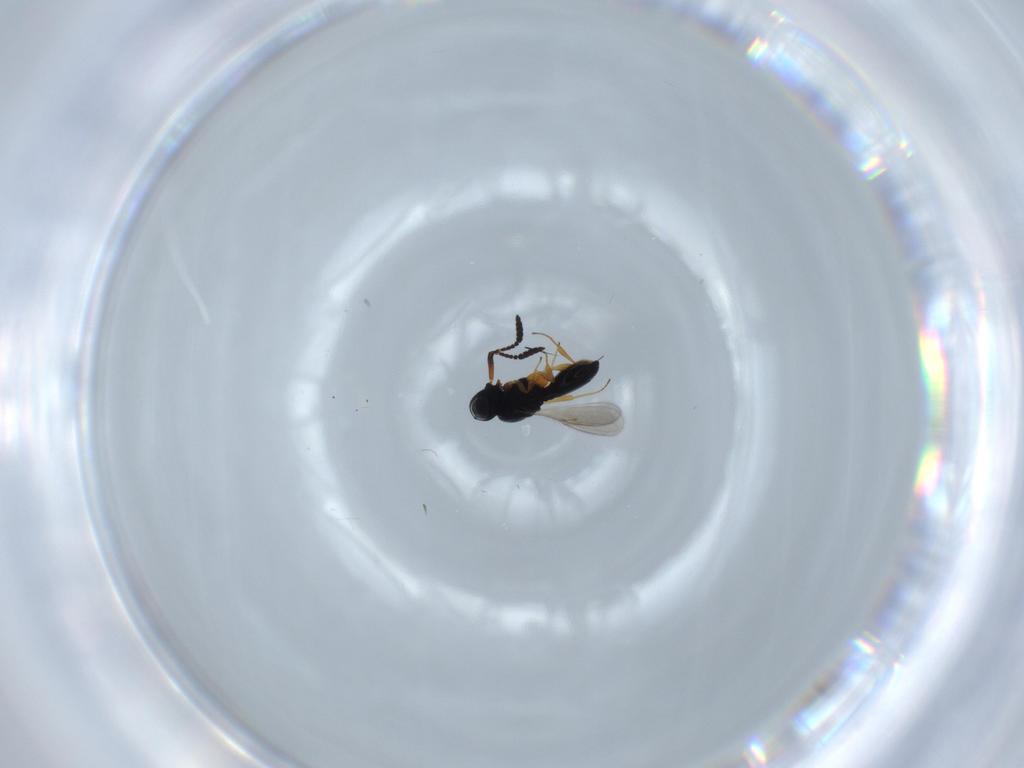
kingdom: Animalia
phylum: Arthropoda
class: Insecta
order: Hymenoptera
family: Scelionidae
